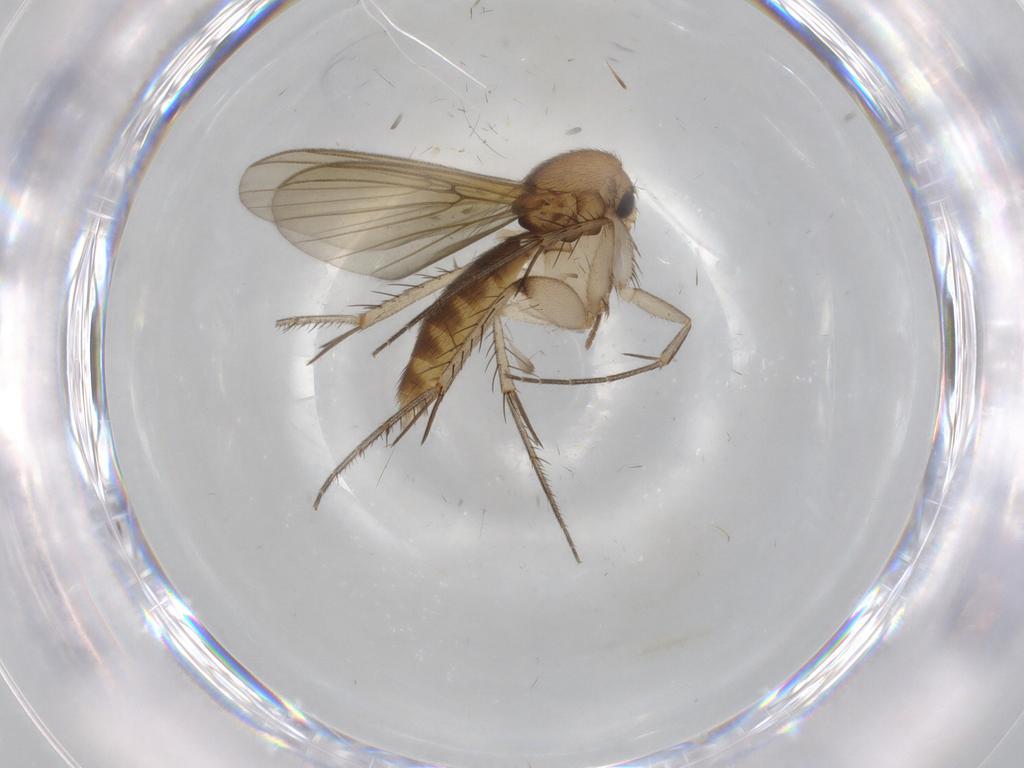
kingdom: Animalia
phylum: Arthropoda
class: Insecta
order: Diptera
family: Mycetophilidae
